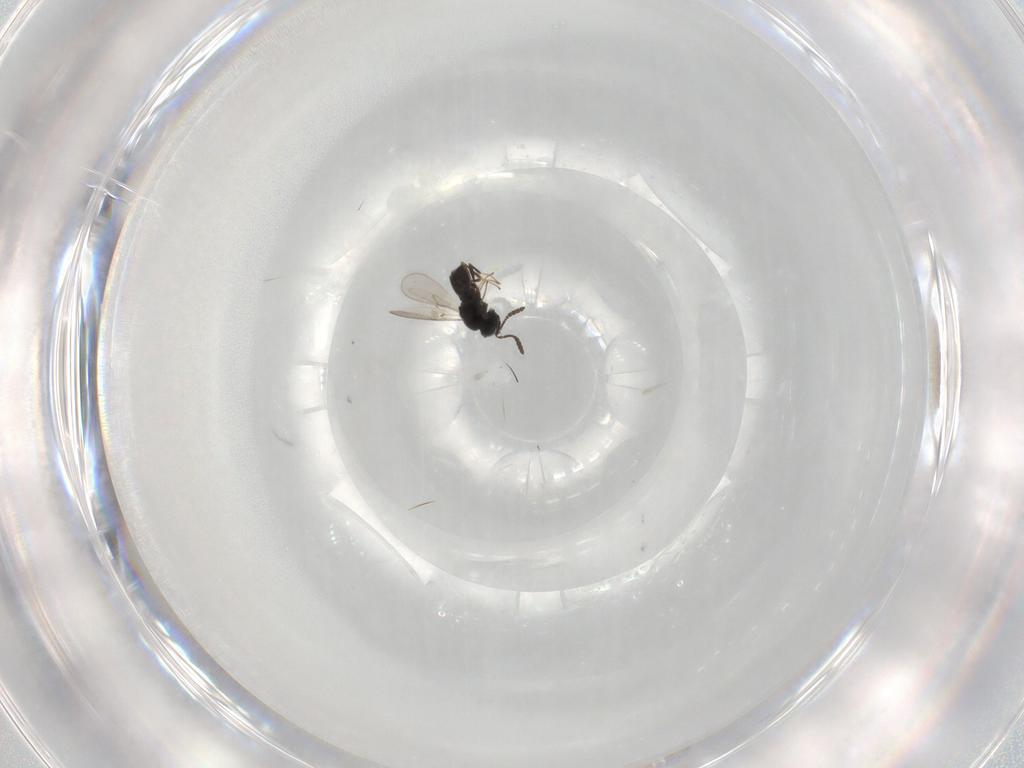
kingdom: Animalia
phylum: Arthropoda
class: Insecta
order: Hymenoptera
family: Scelionidae
